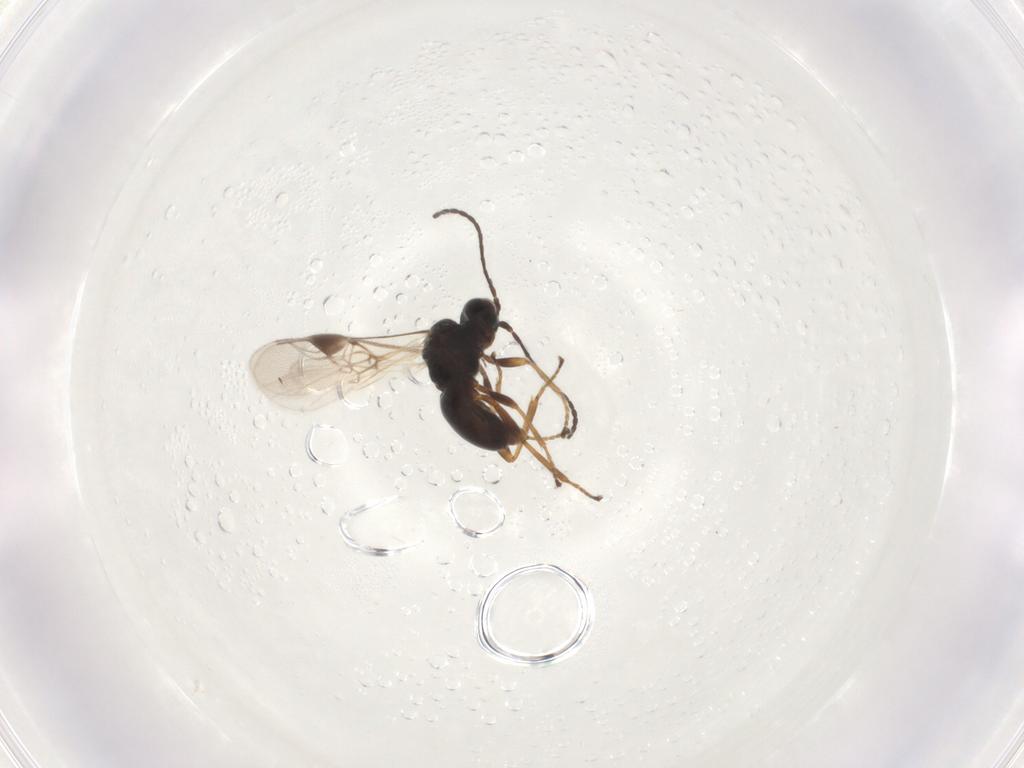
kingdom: Animalia
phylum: Arthropoda
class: Insecta
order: Hymenoptera
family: Braconidae
